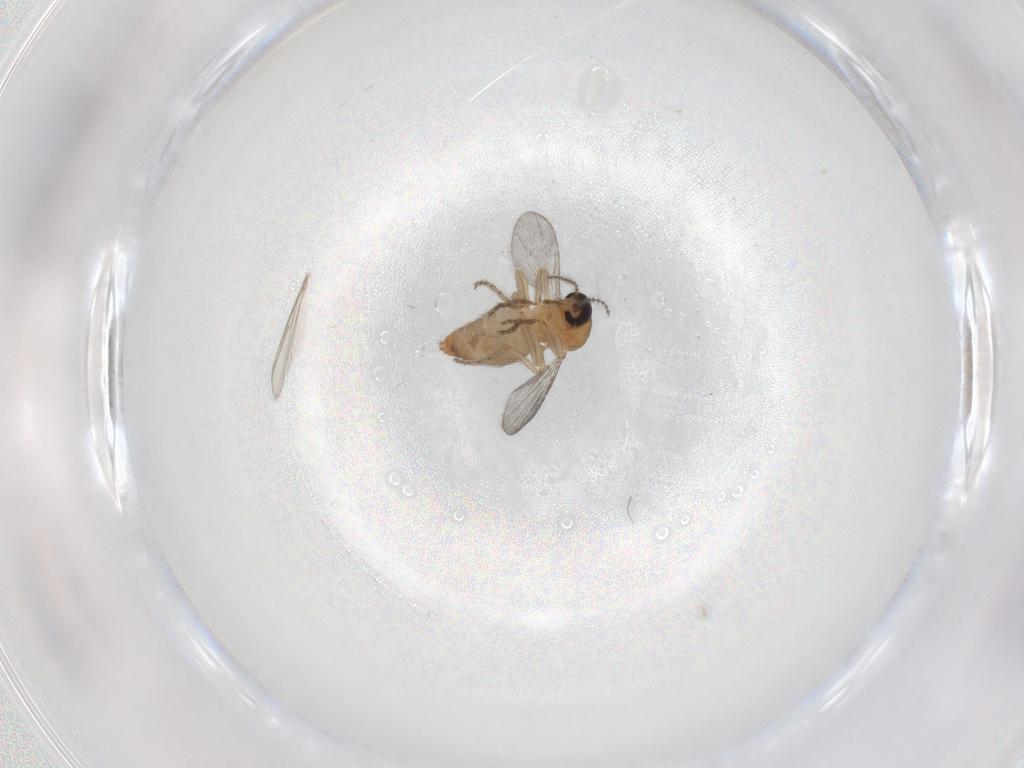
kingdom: Animalia
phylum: Arthropoda
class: Insecta
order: Diptera
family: Ceratopogonidae
